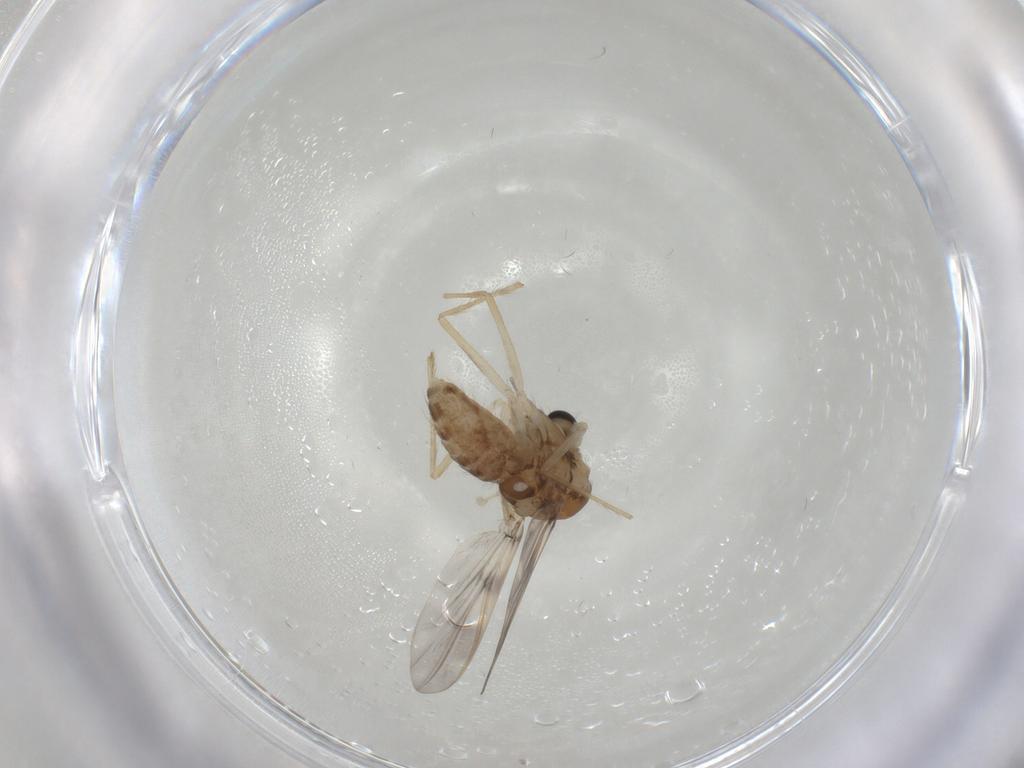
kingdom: Animalia
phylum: Arthropoda
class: Insecta
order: Diptera
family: Chironomidae
